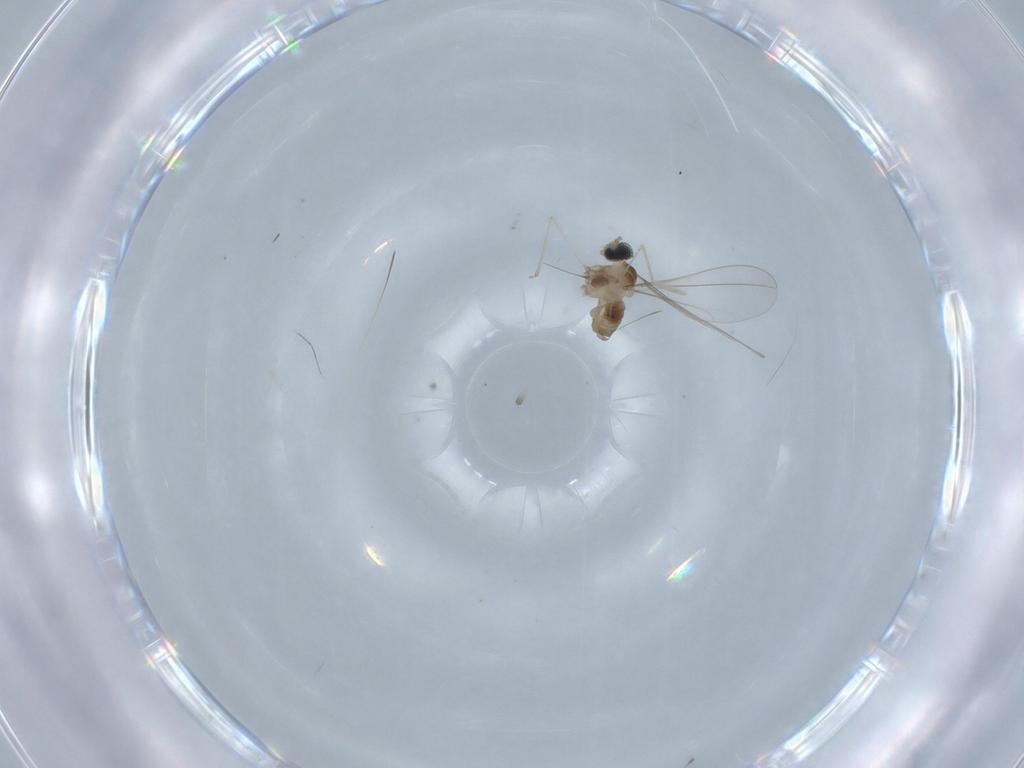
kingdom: Animalia
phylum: Arthropoda
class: Insecta
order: Diptera
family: Cecidomyiidae
